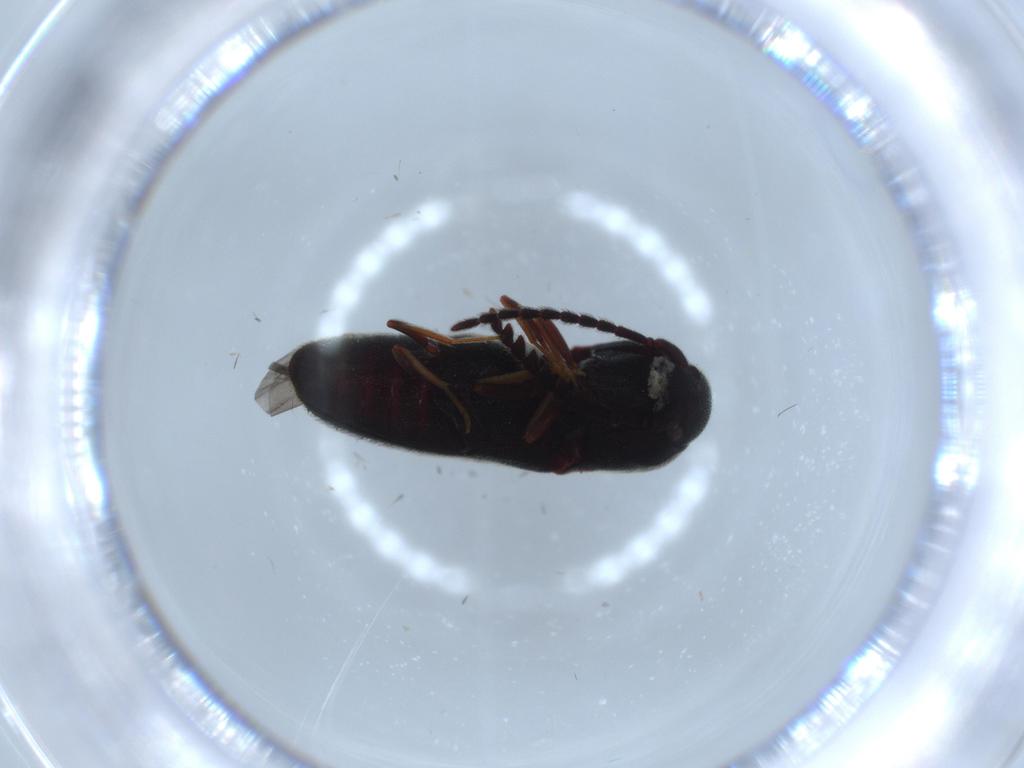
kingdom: Animalia
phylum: Arthropoda
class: Insecta
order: Coleoptera
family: Eucnemidae
